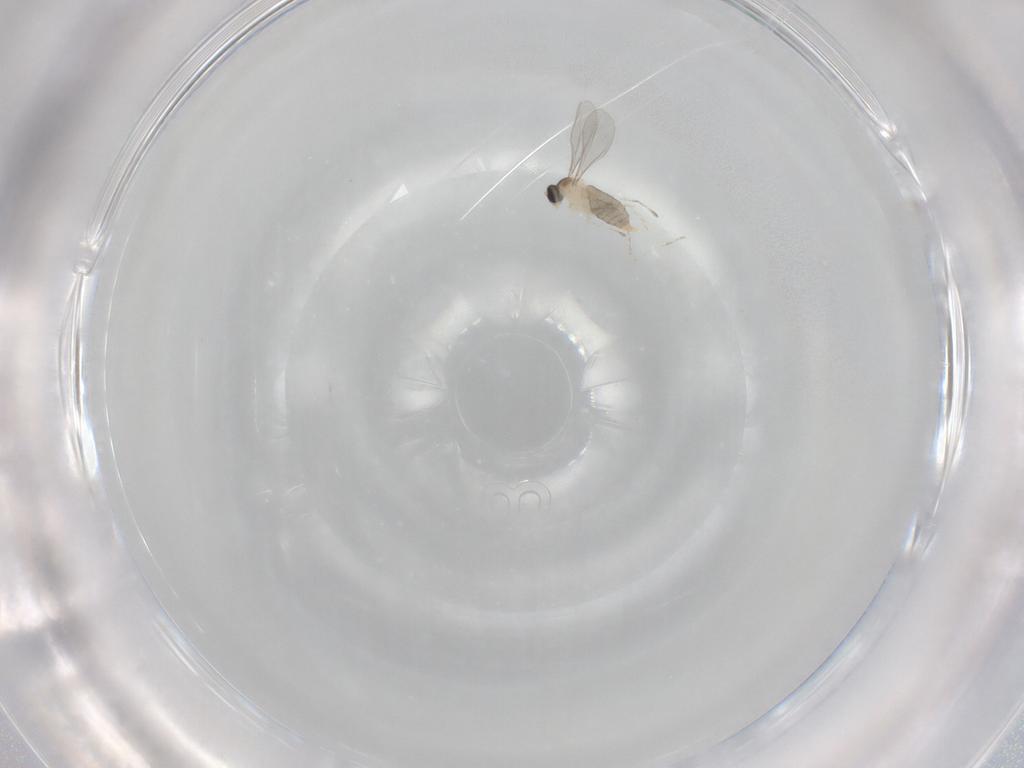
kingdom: Animalia
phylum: Arthropoda
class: Insecta
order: Diptera
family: Cecidomyiidae
